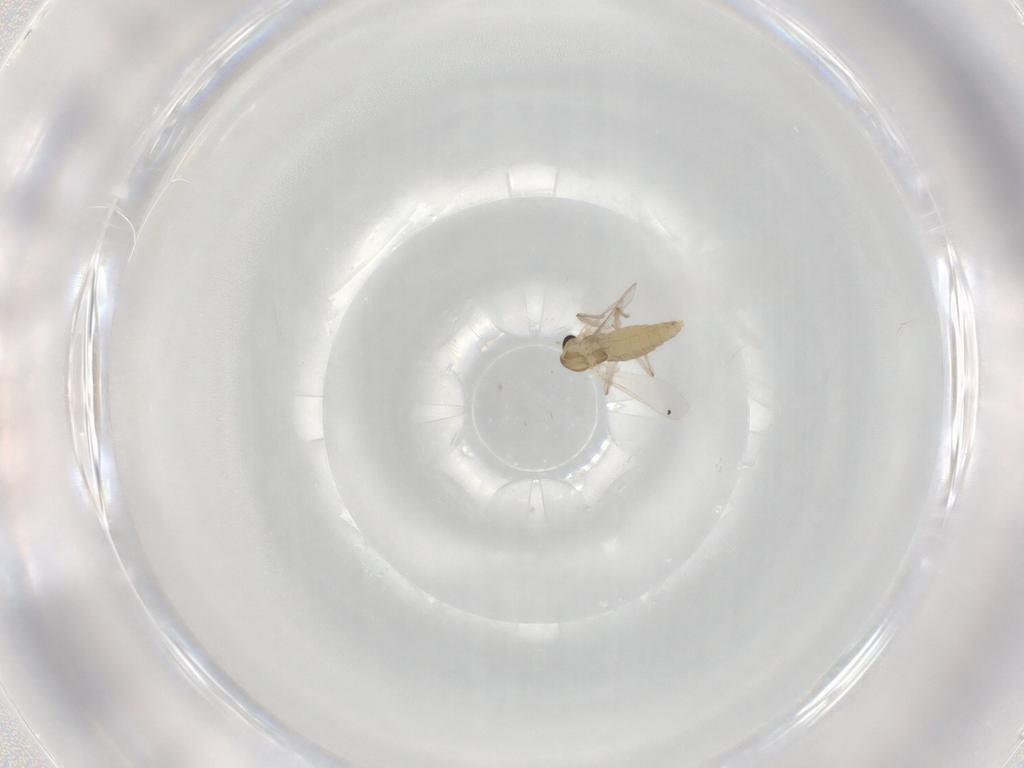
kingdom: Animalia
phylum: Arthropoda
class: Insecta
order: Diptera
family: Chironomidae
